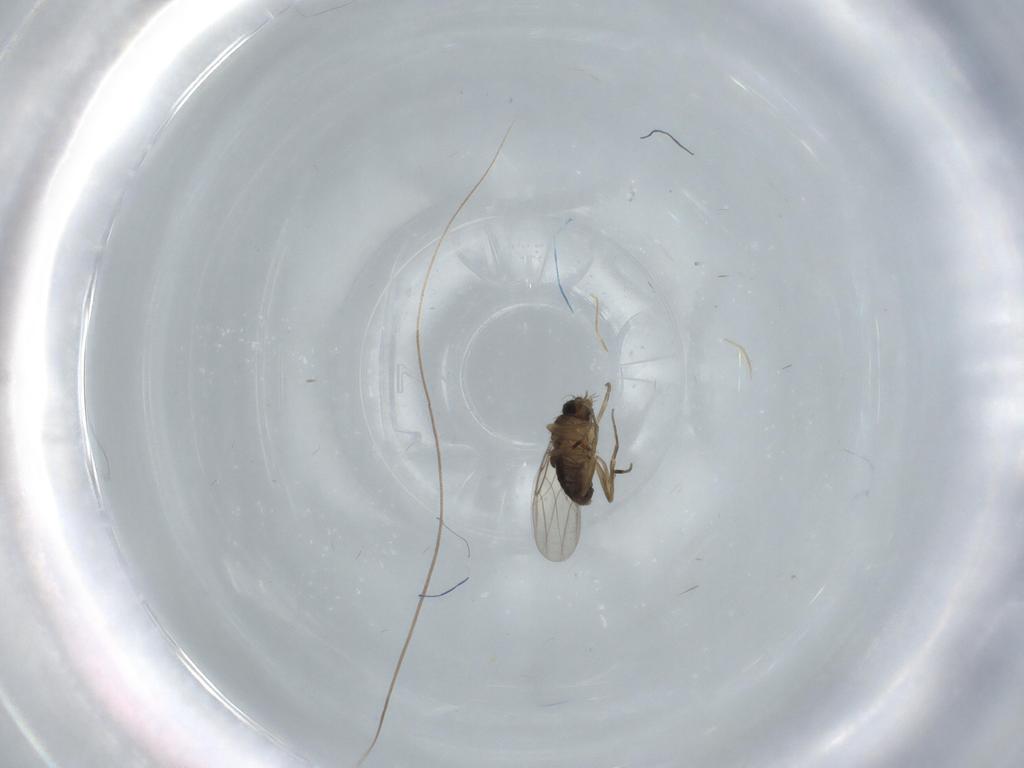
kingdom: Animalia
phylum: Arthropoda
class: Insecta
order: Diptera
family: Phoridae
